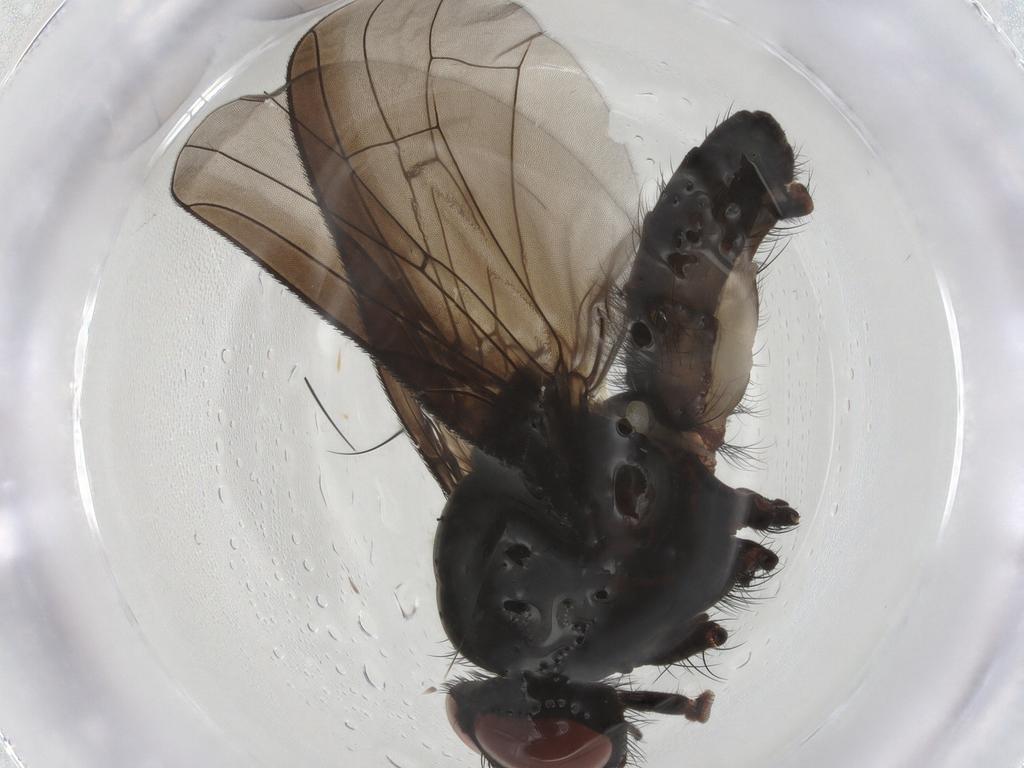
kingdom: Animalia
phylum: Arthropoda
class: Insecta
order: Diptera
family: Anthomyiidae
